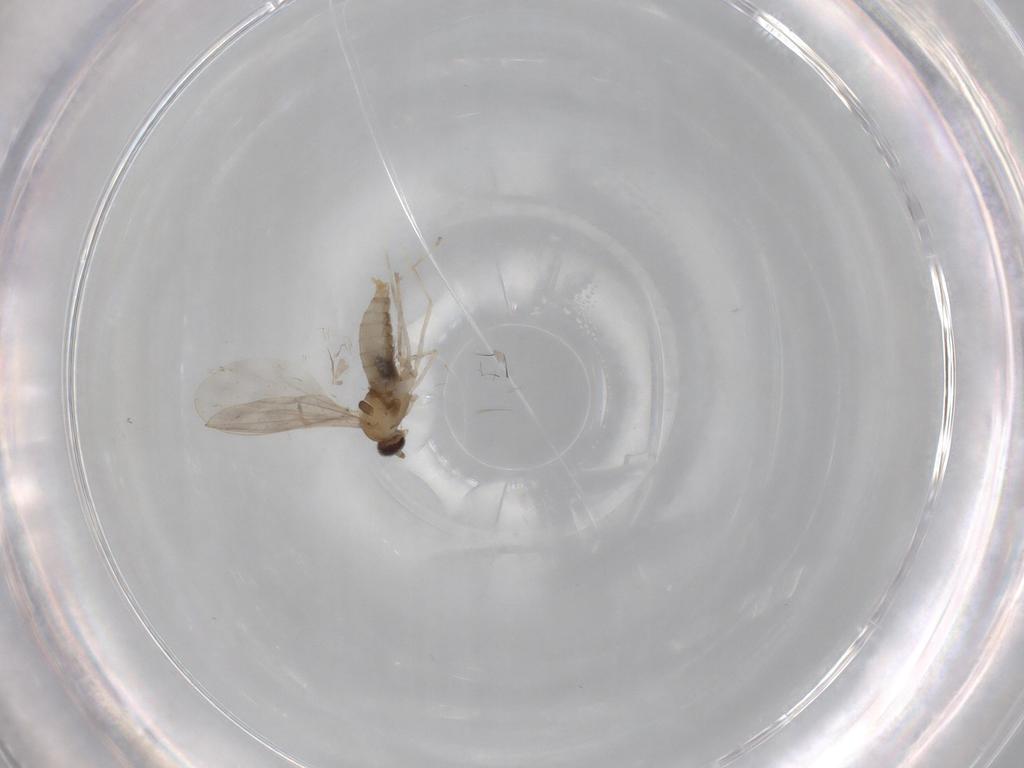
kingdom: Animalia
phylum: Arthropoda
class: Insecta
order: Diptera
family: Cecidomyiidae
